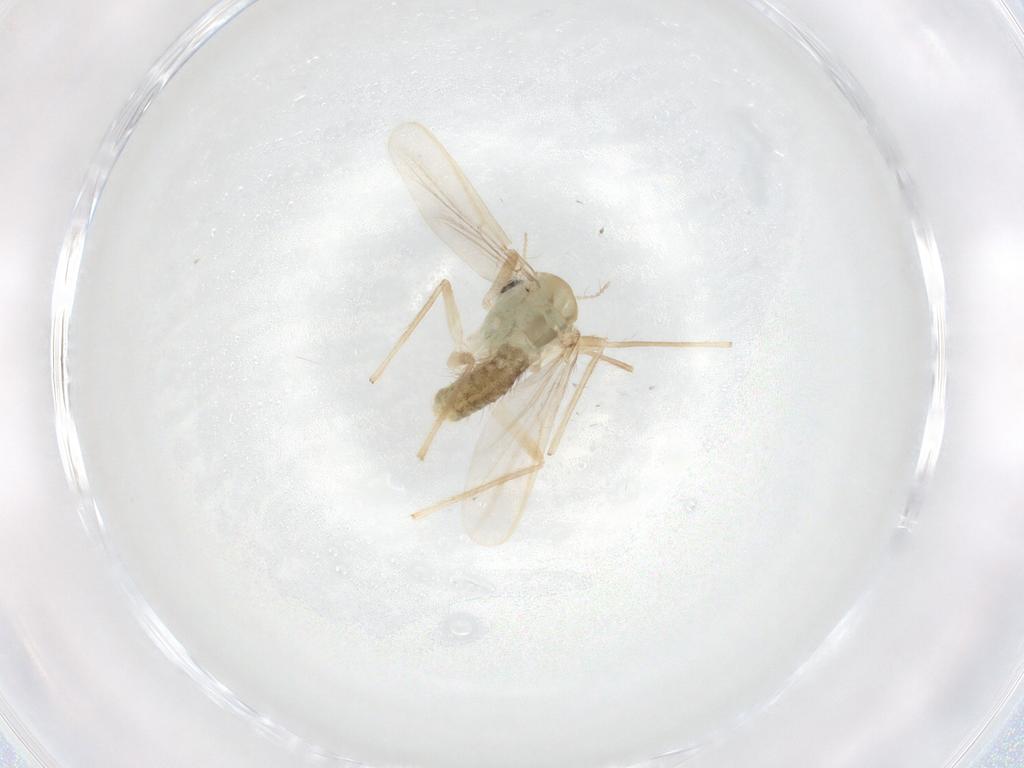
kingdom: Animalia
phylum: Arthropoda
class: Insecta
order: Diptera
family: Chironomidae
